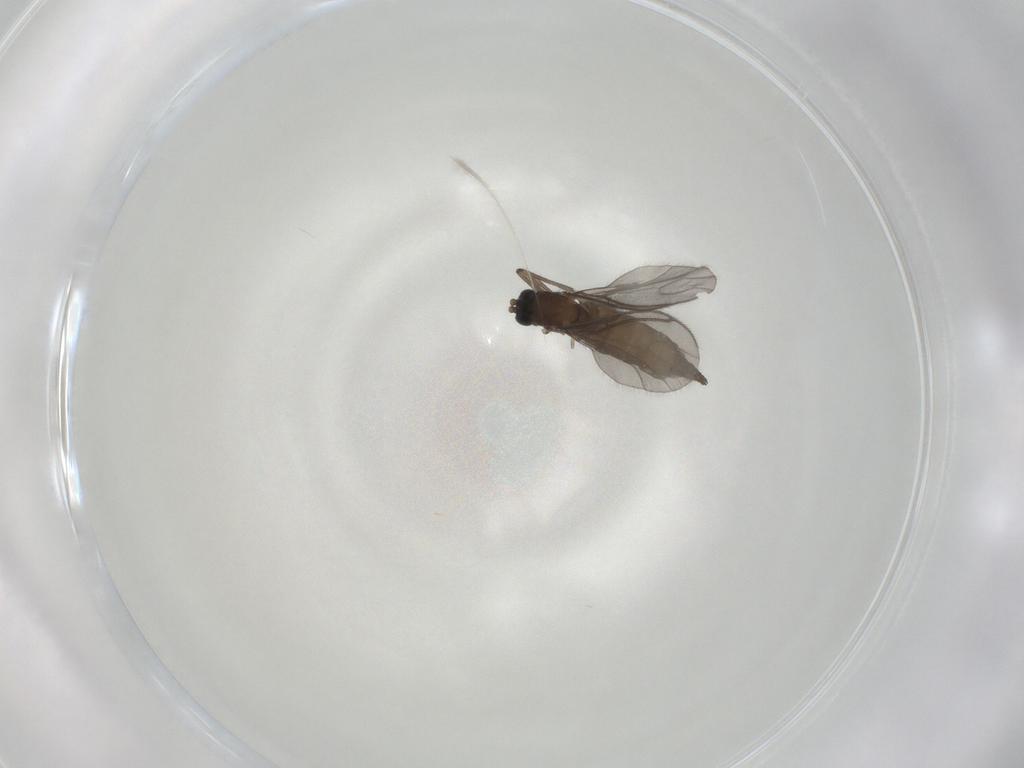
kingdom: Animalia
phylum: Arthropoda
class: Insecta
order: Diptera
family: Sciaridae
